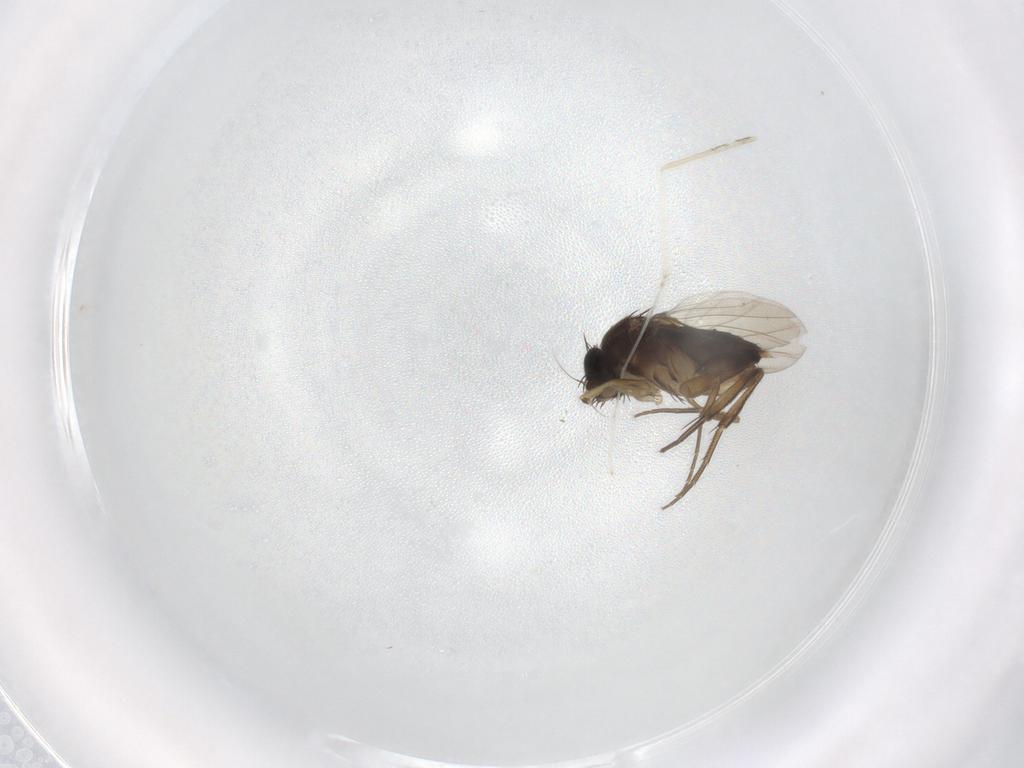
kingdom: Animalia
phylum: Arthropoda
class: Insecta
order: Diptera
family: Phoridae
